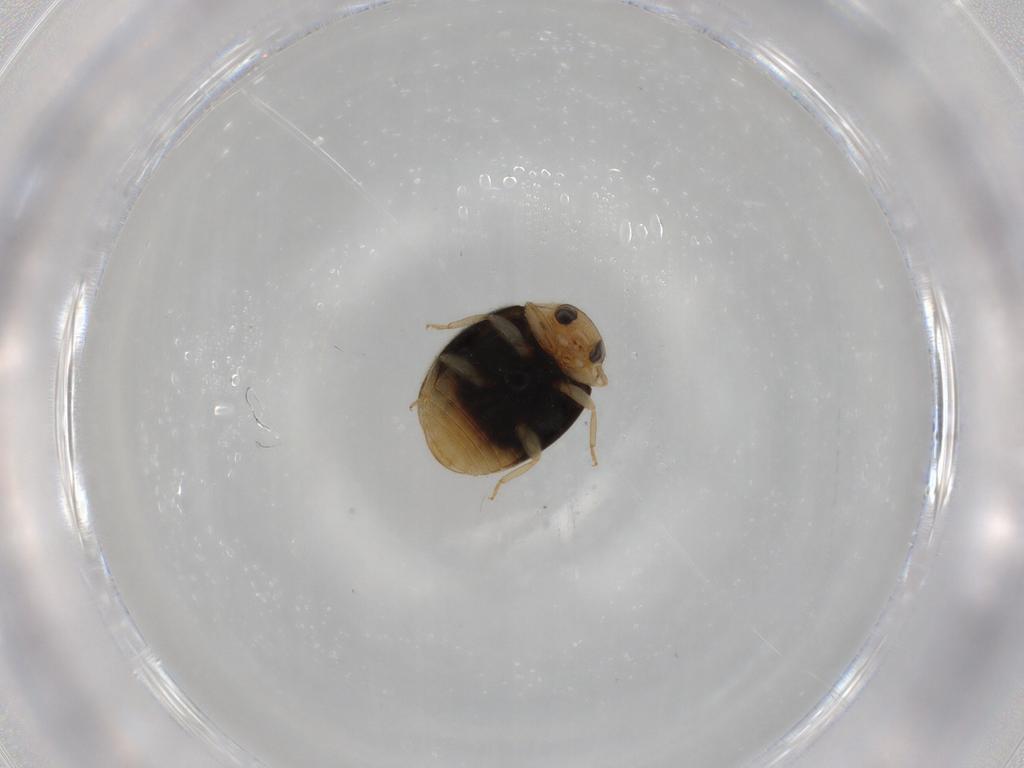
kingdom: Animalia
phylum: Arthropoda
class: Insecta
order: Coleoptera
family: Coccinellidae
